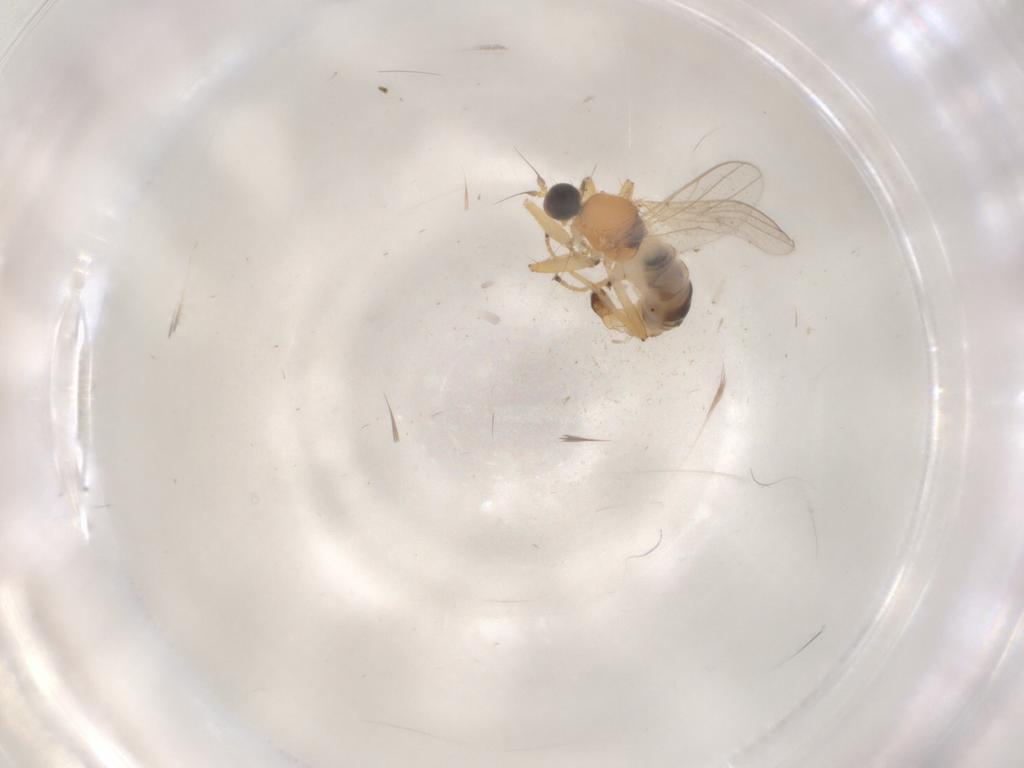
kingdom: Animalia
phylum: Arthropoda
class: Insecta
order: Diptera
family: Hybotidae
